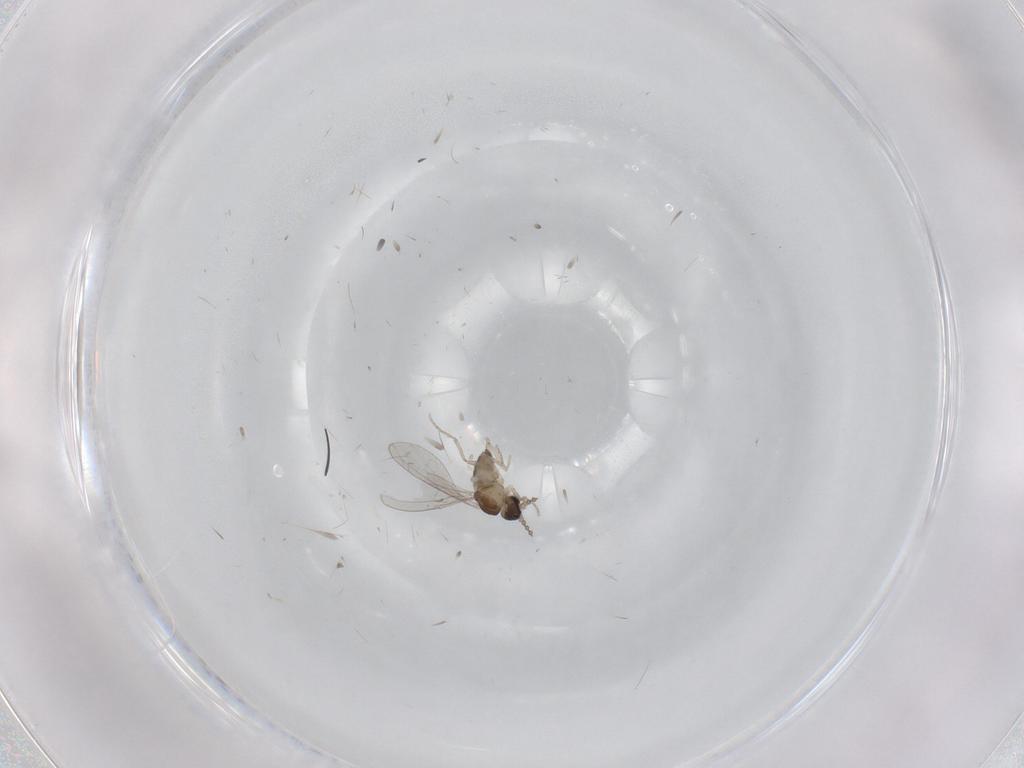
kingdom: Animalia
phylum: Arthropoda
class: Insecta
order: Diptera
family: Cecidomyiidae
